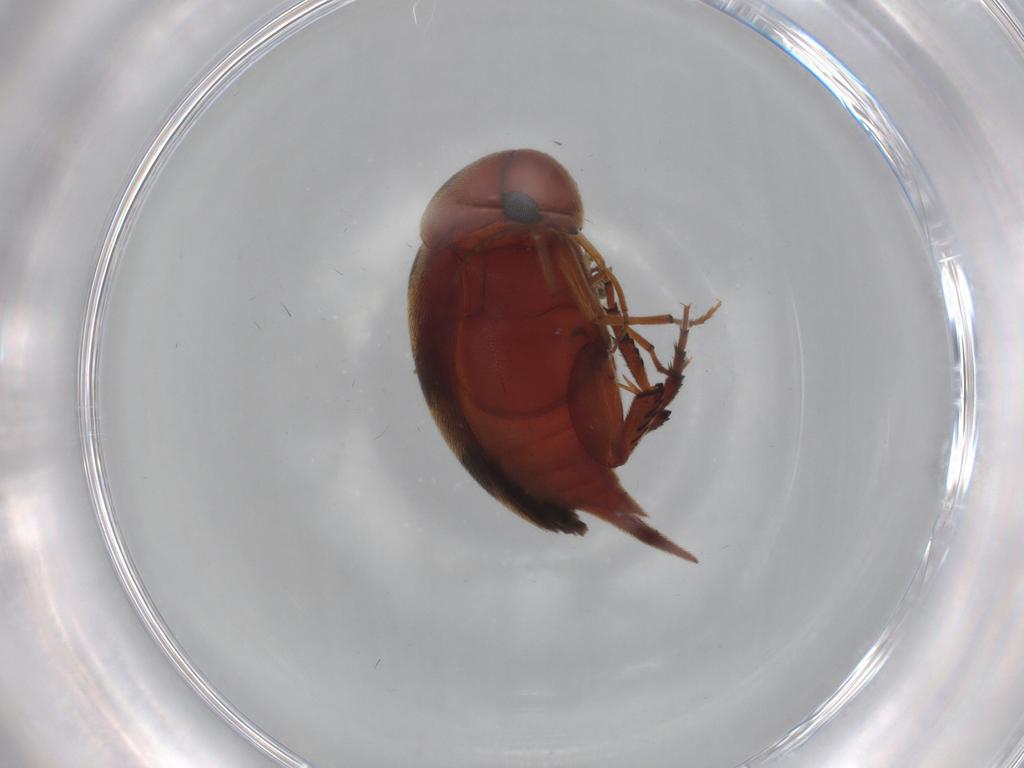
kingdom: Animalia
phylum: Arthropoda
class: Insecta
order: Coleoptera
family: Mordellidae
